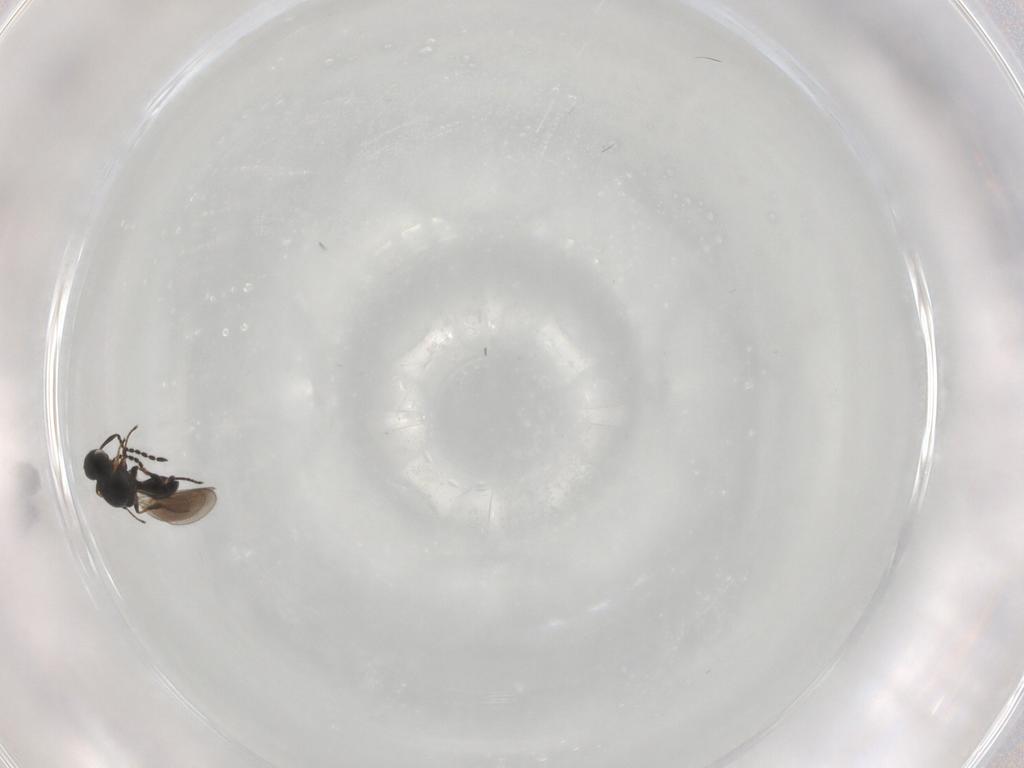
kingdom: Animalia
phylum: Arthropoda
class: Insecta
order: Hymenoptera
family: Platygastridae
